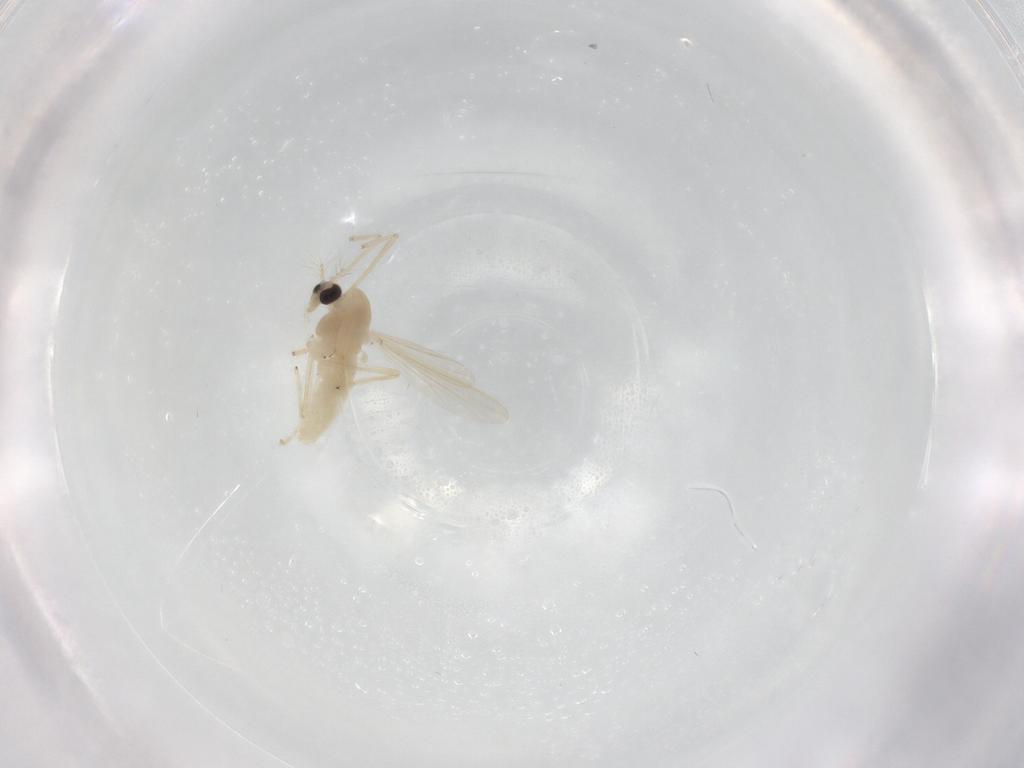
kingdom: Animalia
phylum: Arthropoda
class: Insecta
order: Diptera
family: Chironomidae
